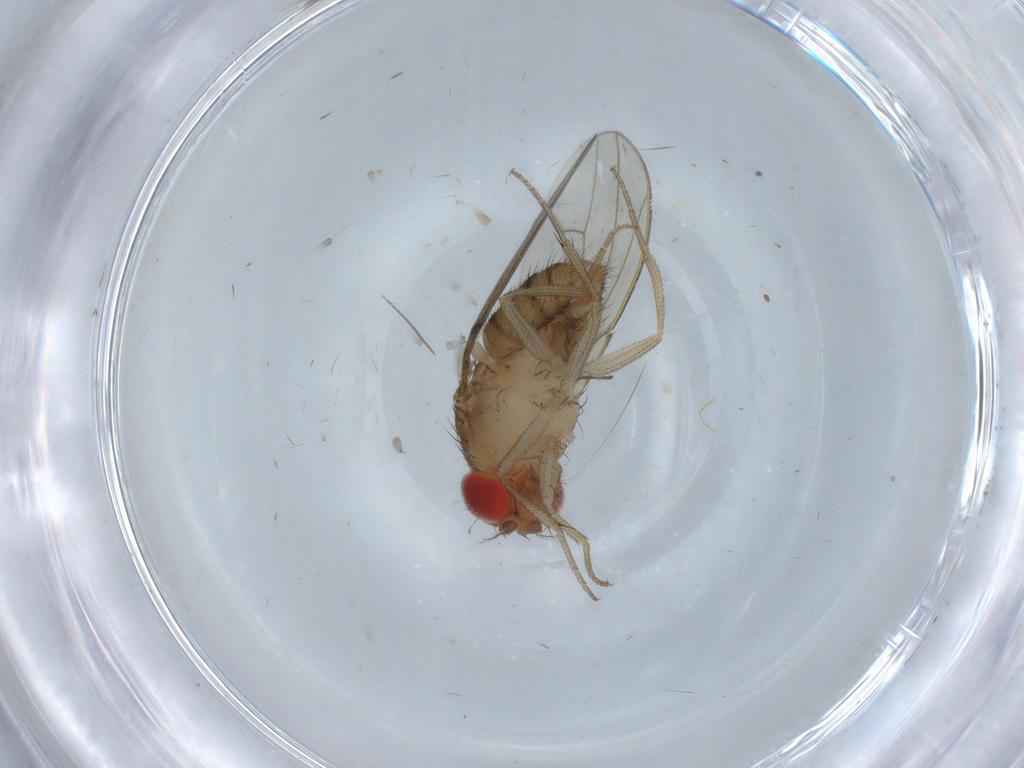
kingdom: Animalia
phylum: Arthropoda
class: Insecta
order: Diptera
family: Drosophilidae
